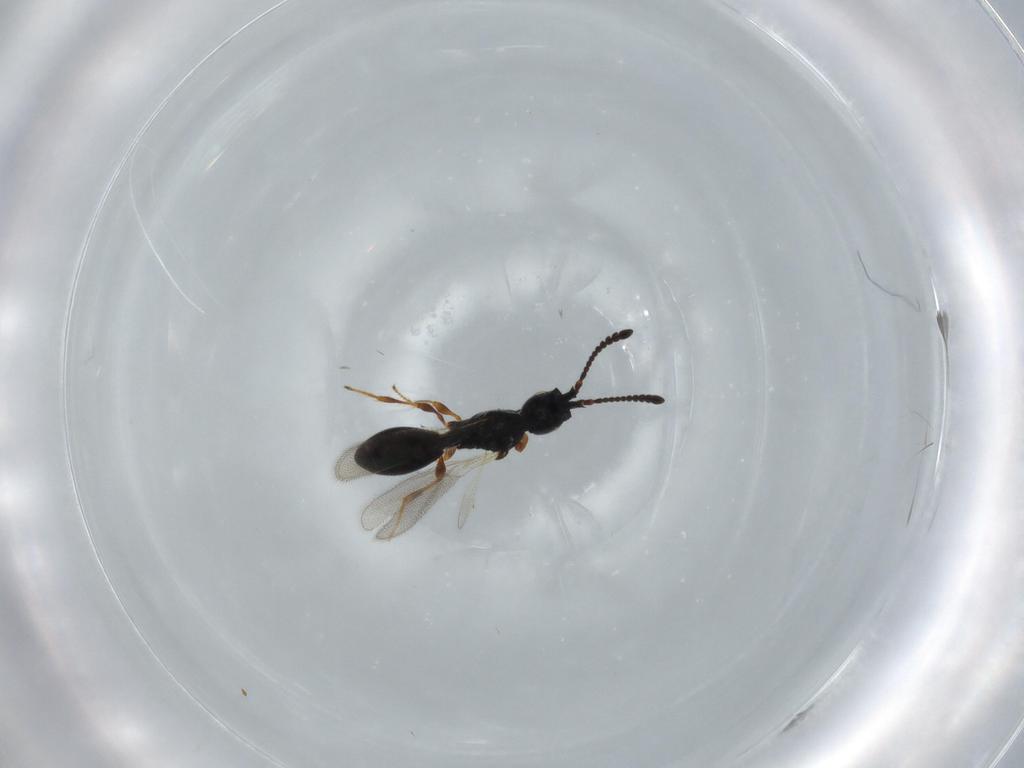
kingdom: Animalia
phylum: Arthropoda
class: Insecta
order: Hymenoptera
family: Diapriidae
